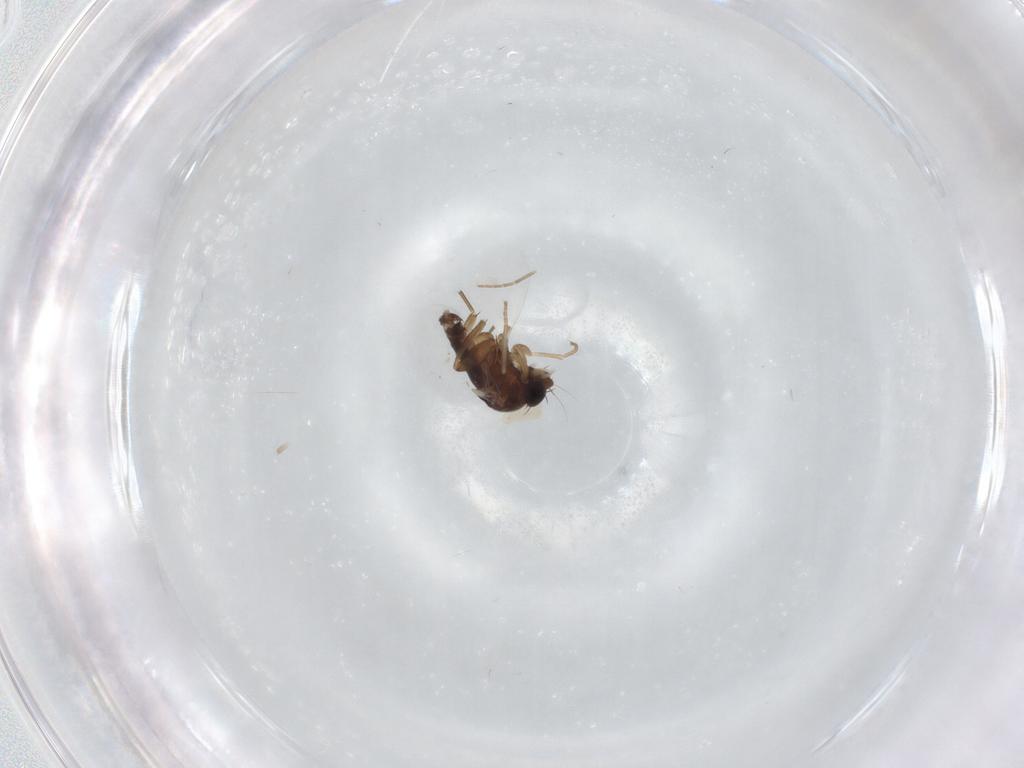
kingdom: Animalia
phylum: Arthropoda
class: Insecta
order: Diptera
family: Phoridae
